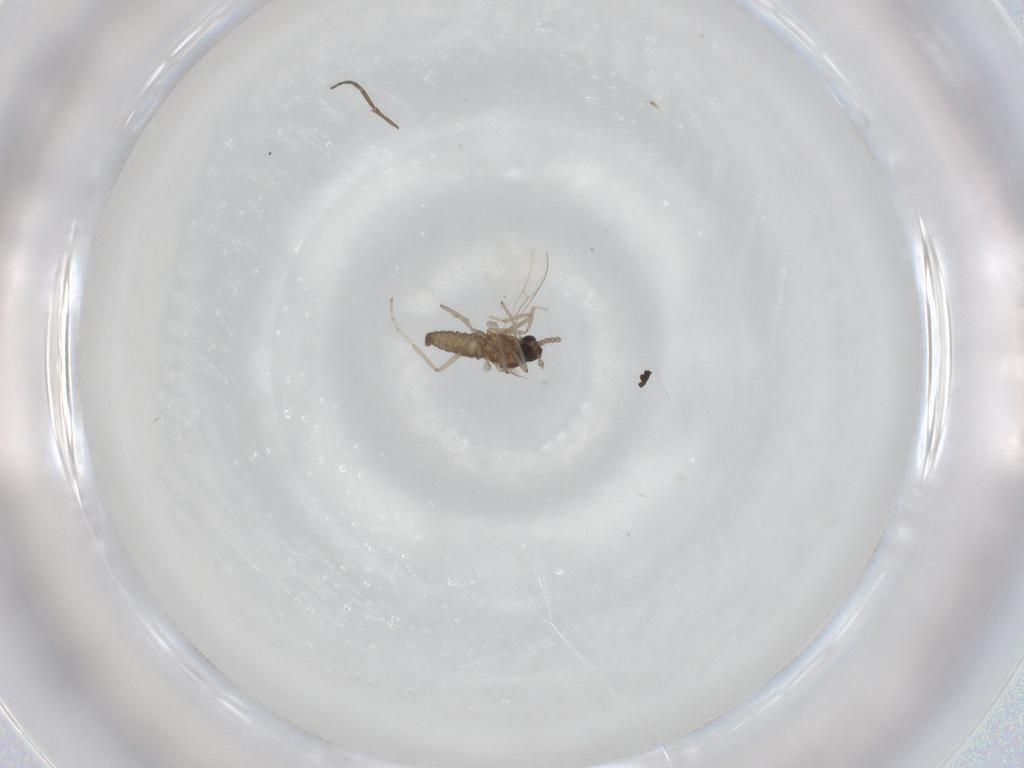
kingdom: Animalia
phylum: Arthropoda
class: Insecta
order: Diptera
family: Cecidomyiidae
